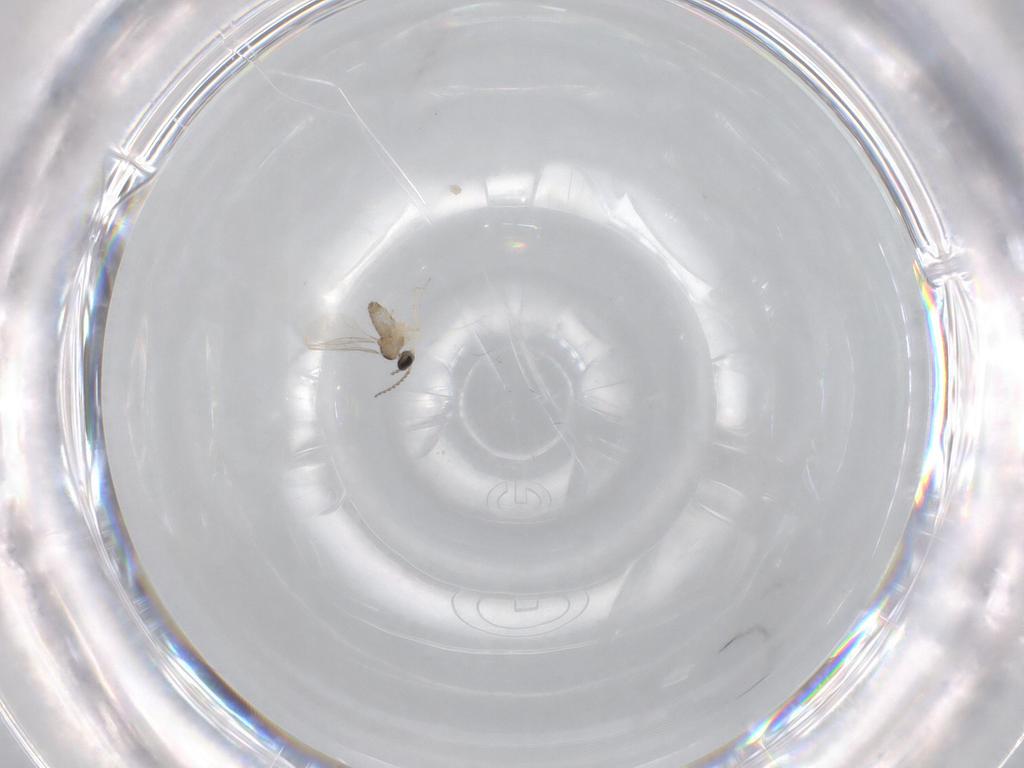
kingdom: Animalia
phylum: Arthropoda
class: Insecta
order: Diptera
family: Cecidomyiidae
